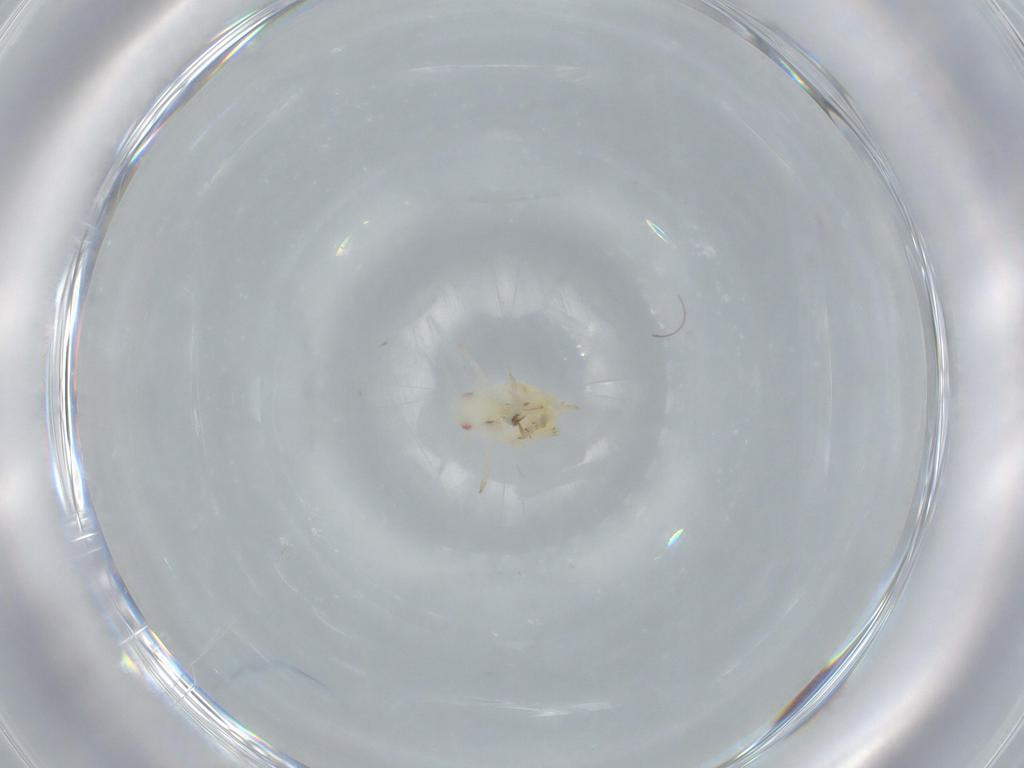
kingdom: Animalia
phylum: Arthropoda
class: Insecta
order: Hemiptera
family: Flatidae
